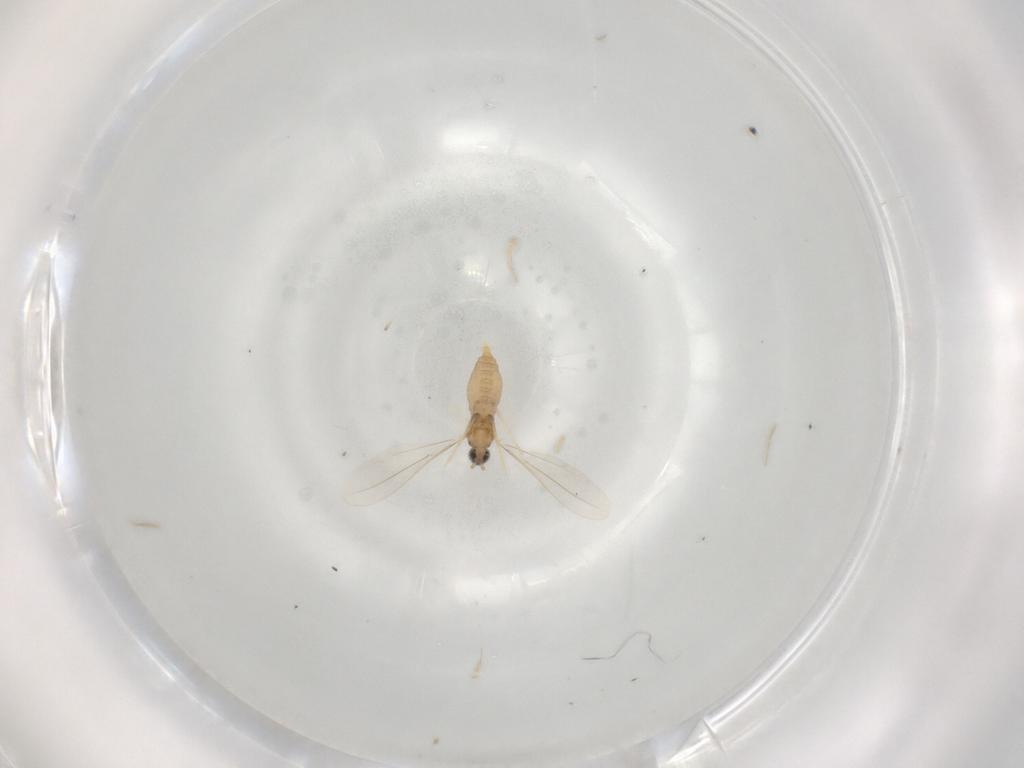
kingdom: Animalia
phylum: Arthropoda
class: Insecta
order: Diptera
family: Cecidomyiidae
